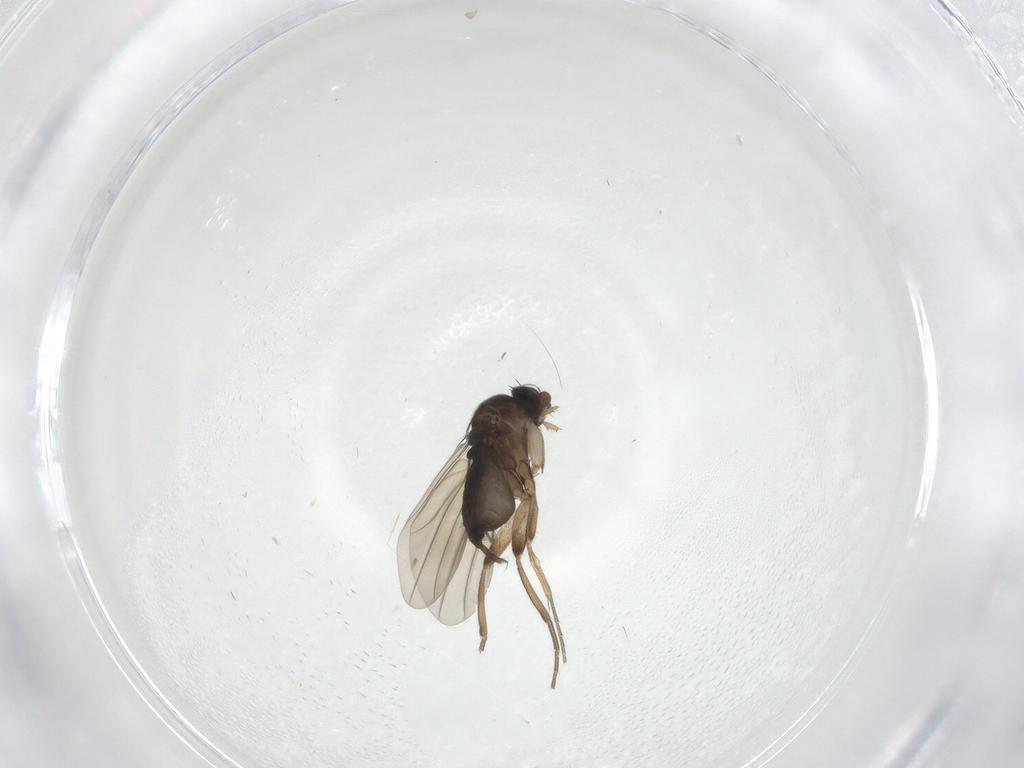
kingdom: Animalia
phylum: Arthropoda
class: Insecta
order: Diptera
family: Phoridae
